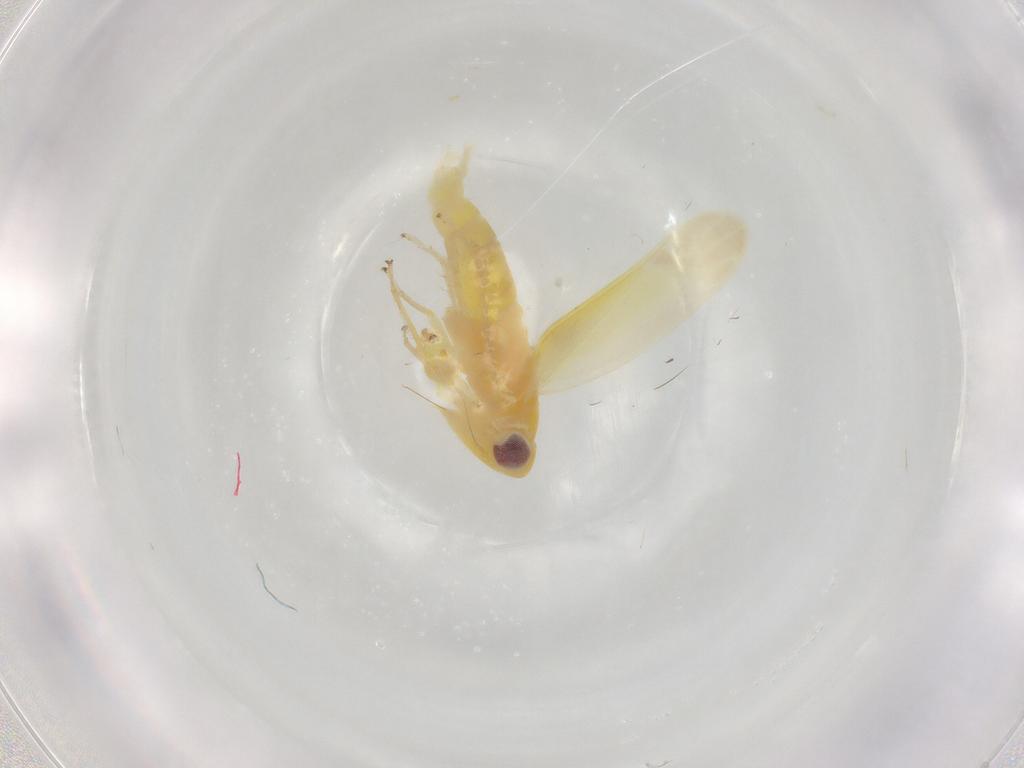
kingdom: Animalia
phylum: Arthropoda
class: Insecta
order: Hemiptera
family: Cicadellidae
